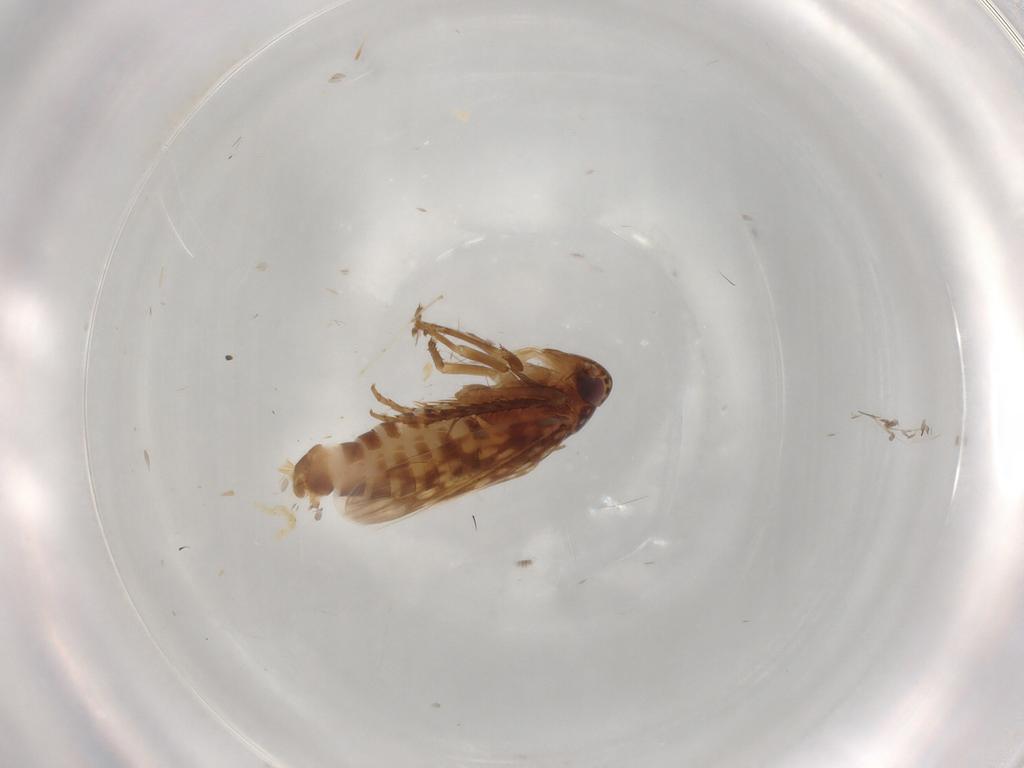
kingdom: Animalia
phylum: Arthropoda
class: Insecta
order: Hemiptera
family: Cicadellidae
